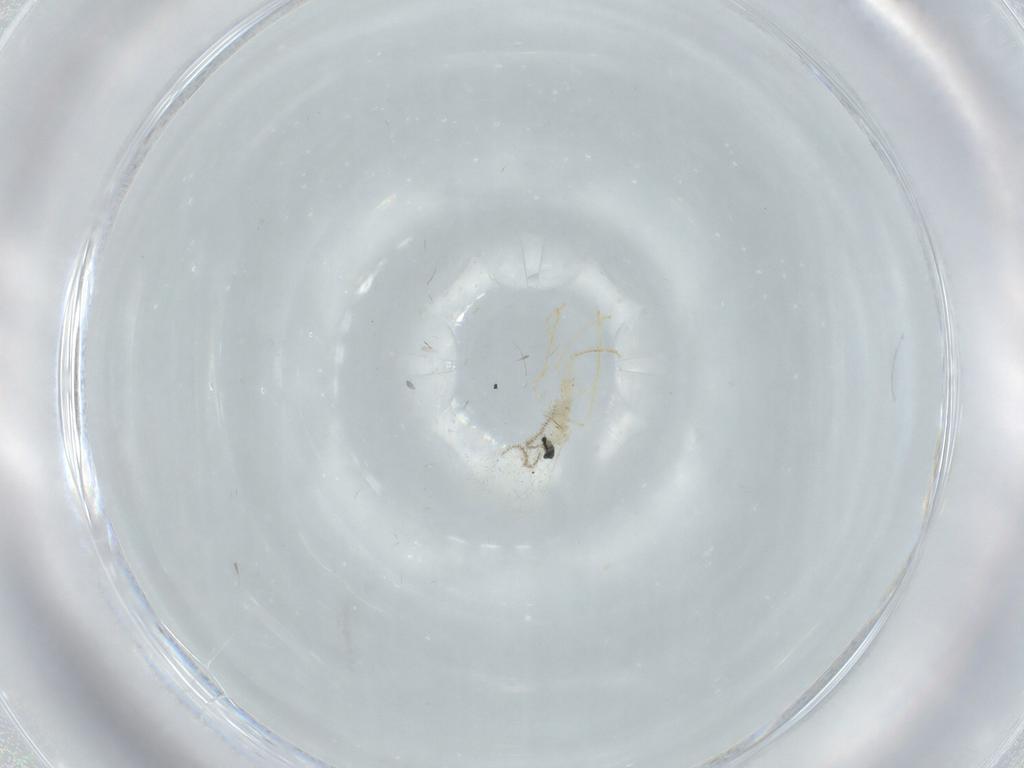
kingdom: Animalia
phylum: Arthropoda
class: Insecta
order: Diptera
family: Cecidomyiidae
